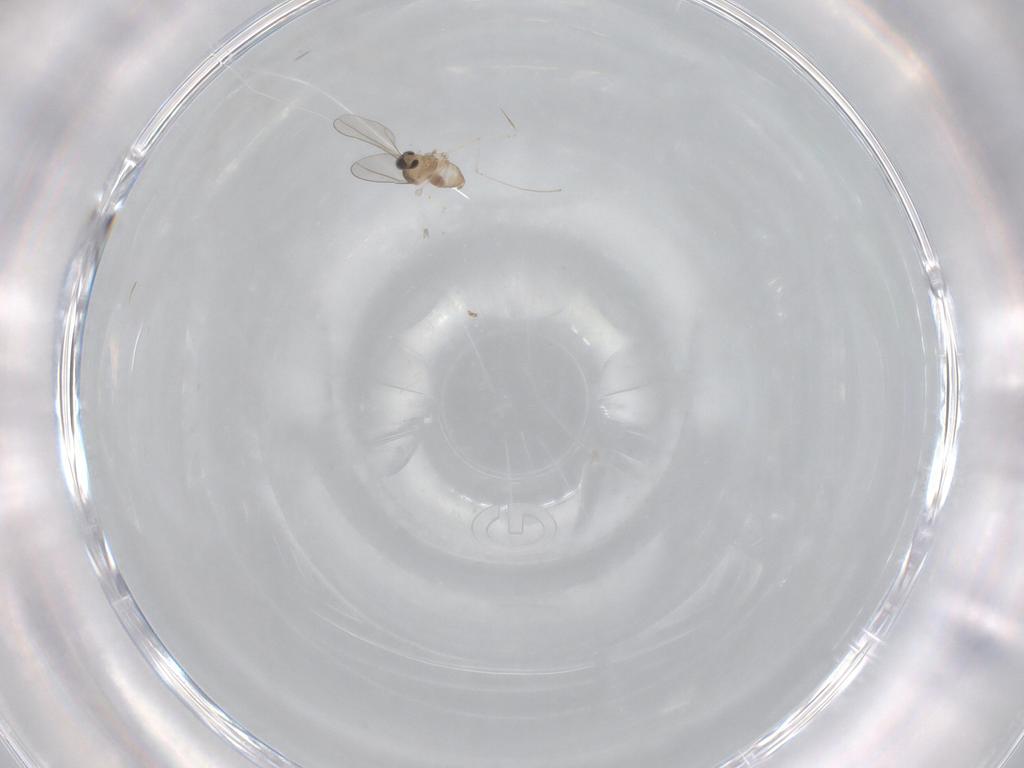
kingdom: Animalia
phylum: Arthropoda
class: Insecta
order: Diptera
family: Cecidomyiidae
